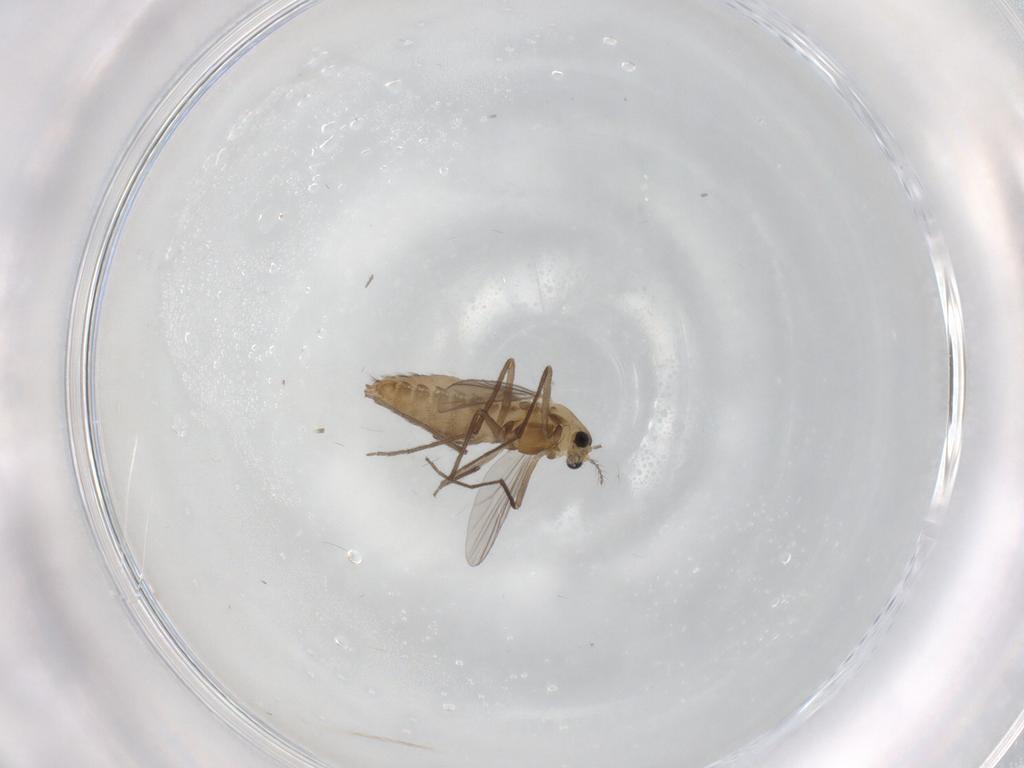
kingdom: Animalia
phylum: Arthropoda
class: Insecta
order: Diptera
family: Chironomidae
